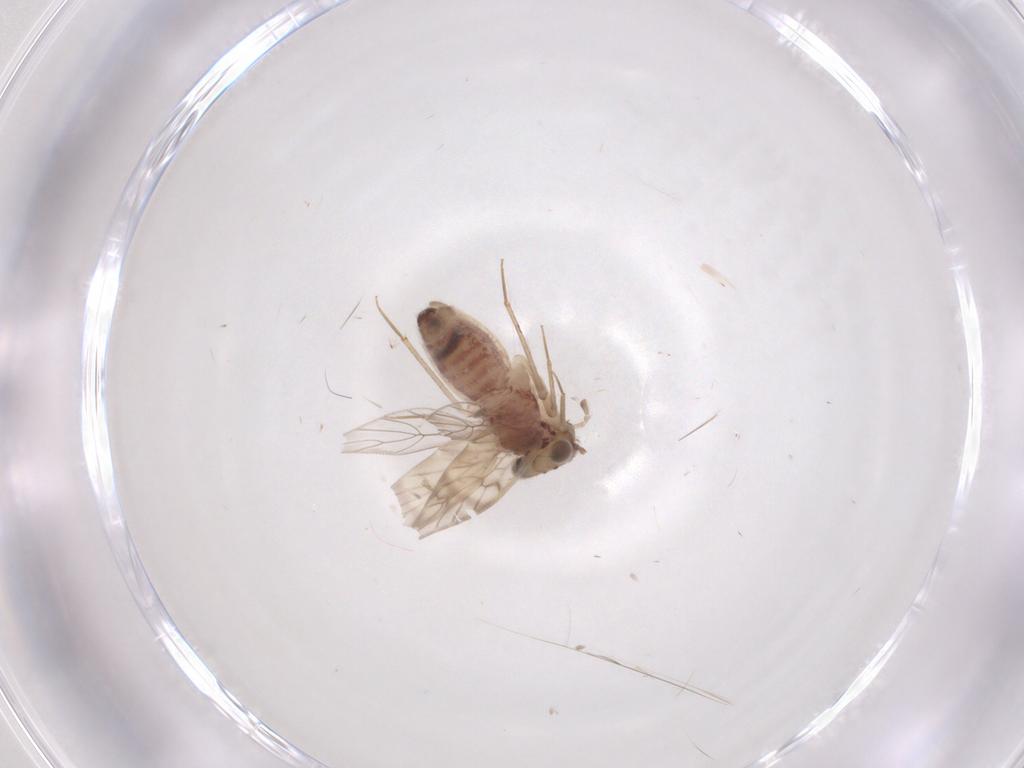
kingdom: Animalia
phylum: Arthropoda
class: Insecta
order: Psocodea
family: Lepidopsocidae
